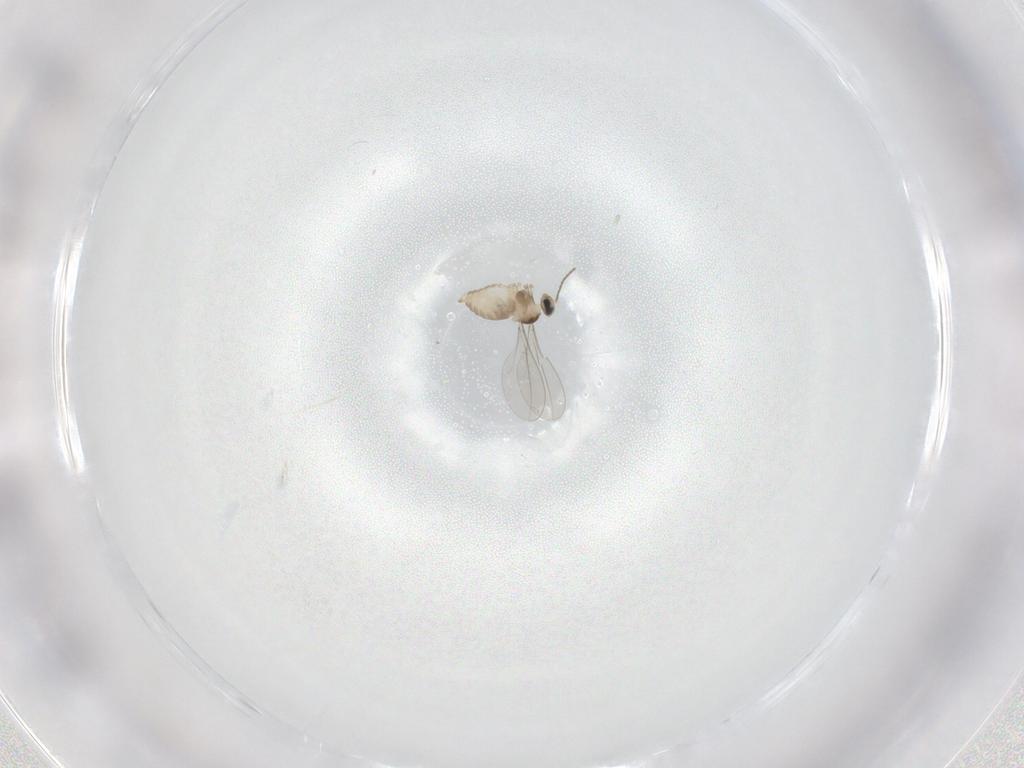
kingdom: Animalia
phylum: Arthropoda
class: Insecta
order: Diptera
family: Cecidomyiidae
